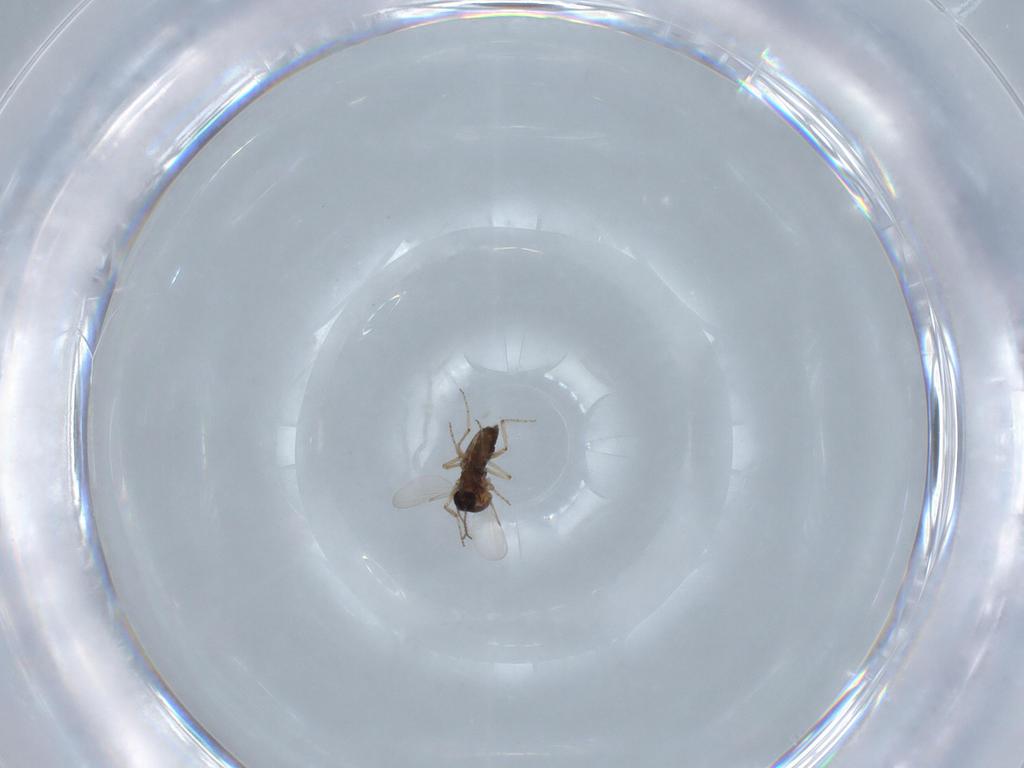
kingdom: Animalia
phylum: Arthropoda
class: Insecta
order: Diptera
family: Ceratopogonidae
